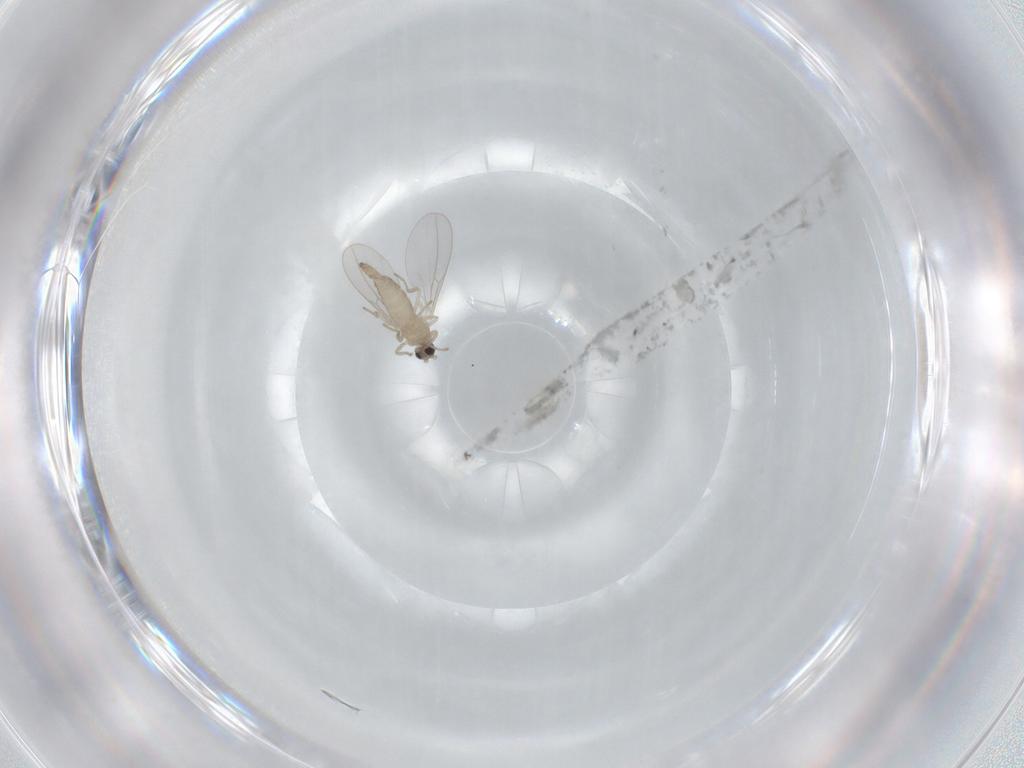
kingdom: Animalia
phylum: Arthropoda
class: Insecta
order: Diptera
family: Cecidomyiidae
